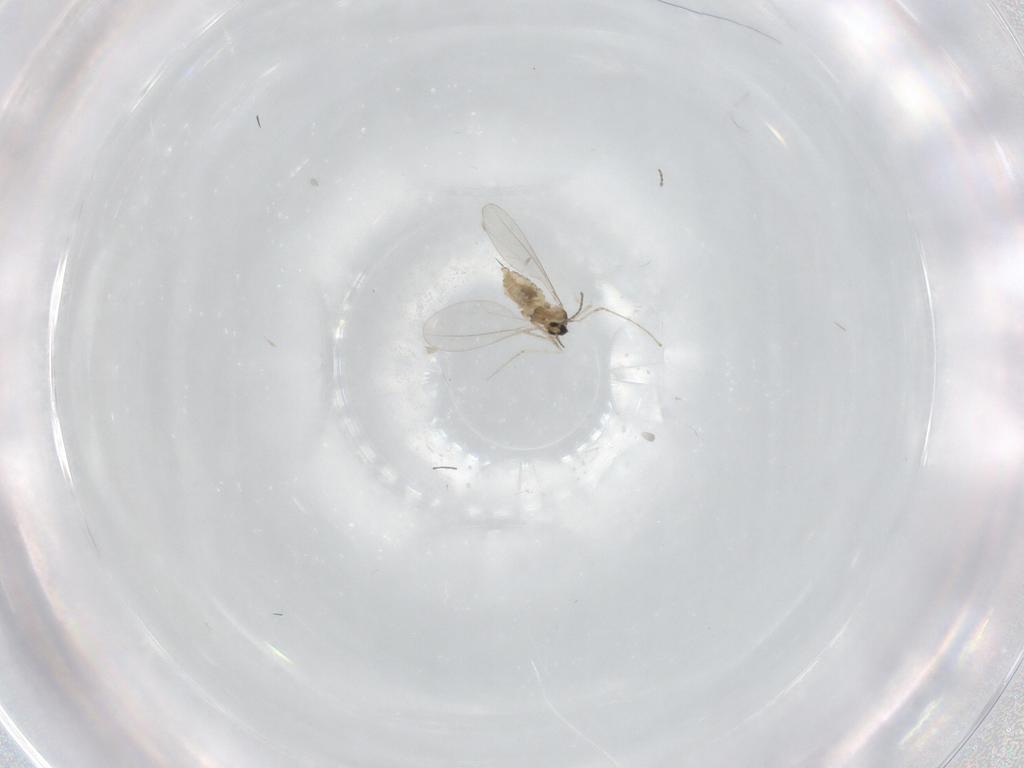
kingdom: Animalia
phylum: Arthropoda
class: Insecta
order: Diptera
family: Cecidomyiidae
